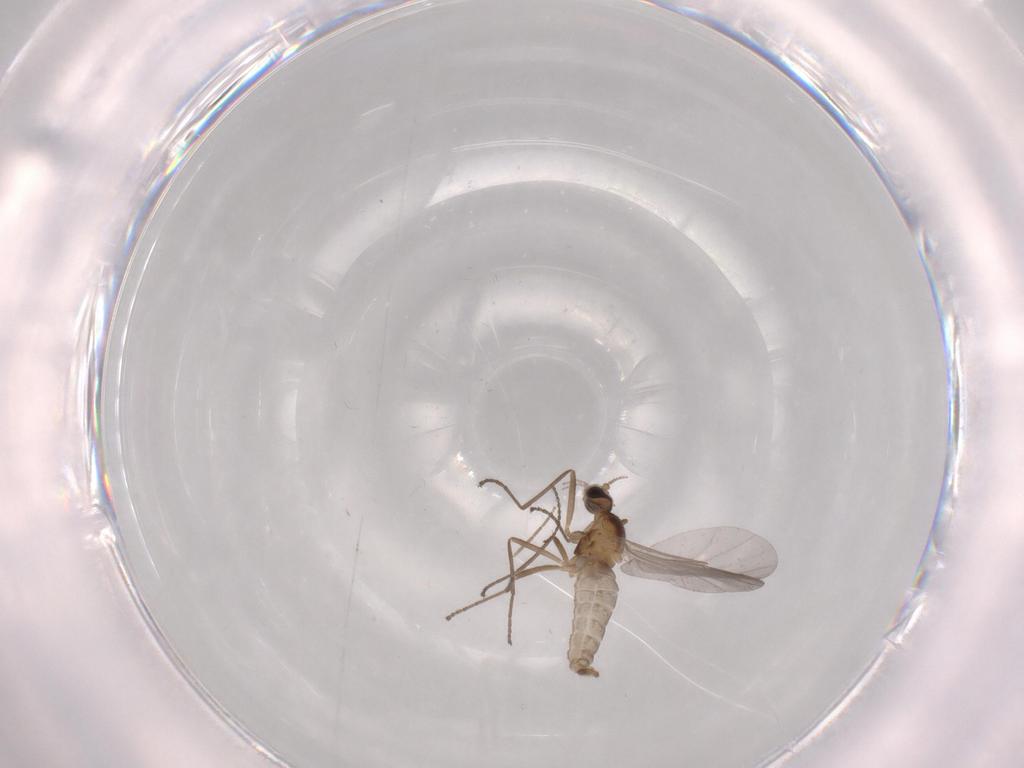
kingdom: Animalia
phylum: Arthropoda
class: Insecta
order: Diptera
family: Cecidomyiidae
